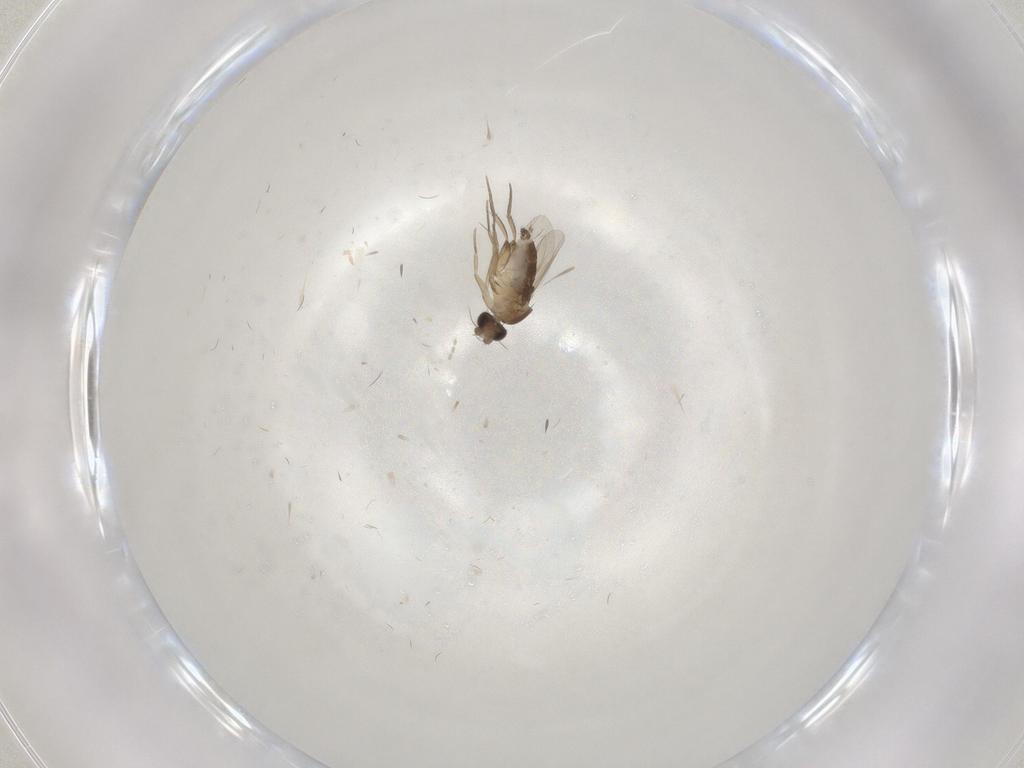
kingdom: Animalia
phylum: Arthropoda
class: Insecta
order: Diptera
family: Phoridae
